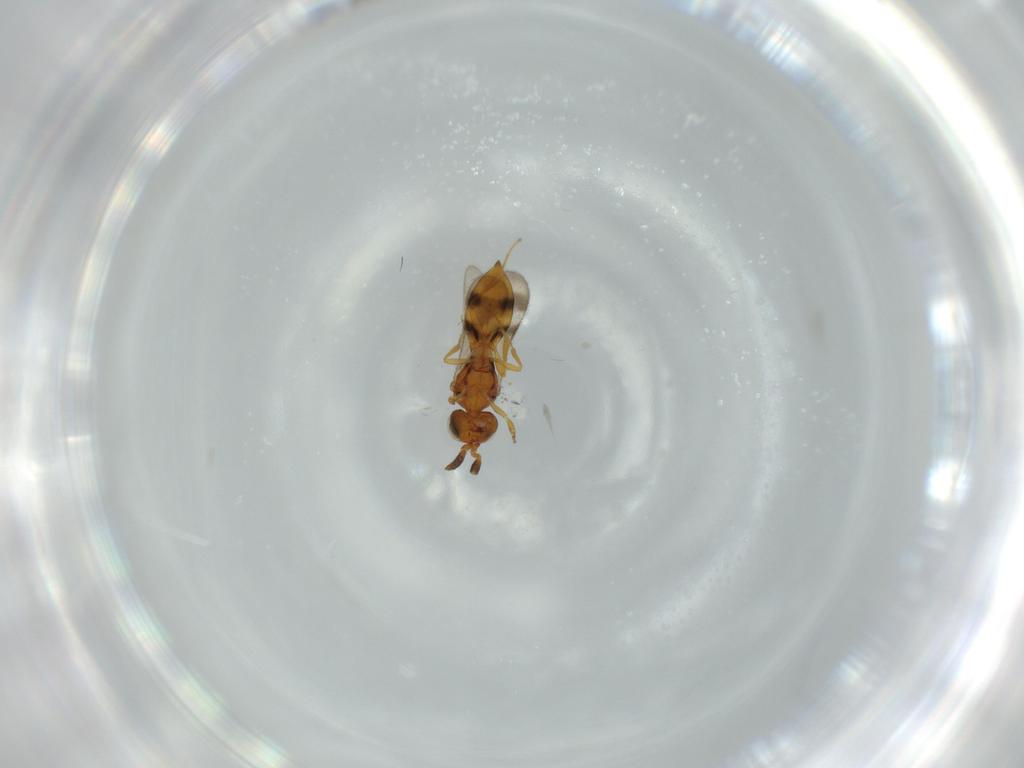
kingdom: Animalia
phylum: Arthropoda
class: Insecta
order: Hymenoptera
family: Scelionidae
